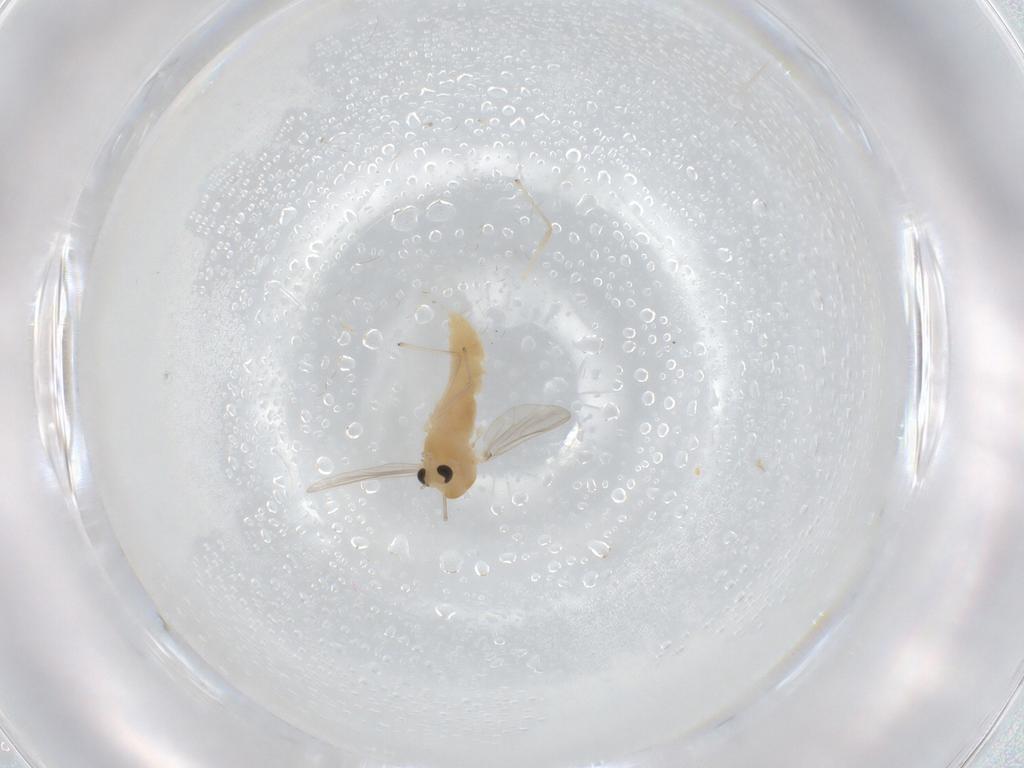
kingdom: Animalia
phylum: Arthropoda
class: Insecta
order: Diptera
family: Chironomidae
